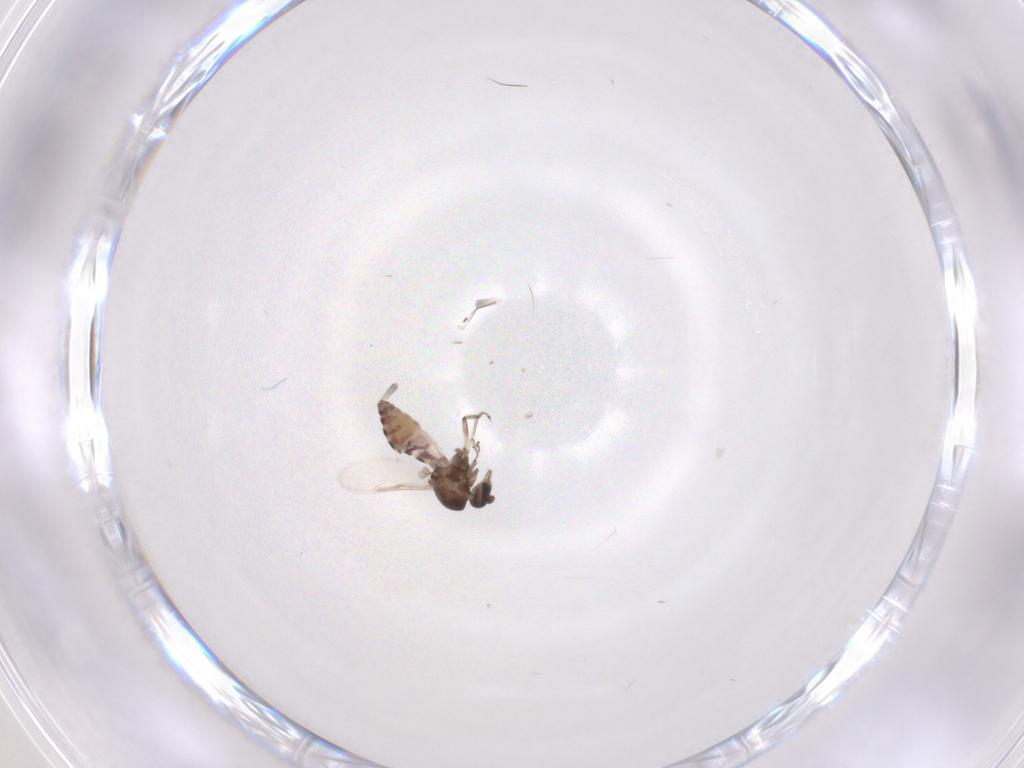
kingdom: Animalia
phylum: Arthropoda
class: Insecta
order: Diptera
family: Ceratopogonidae
